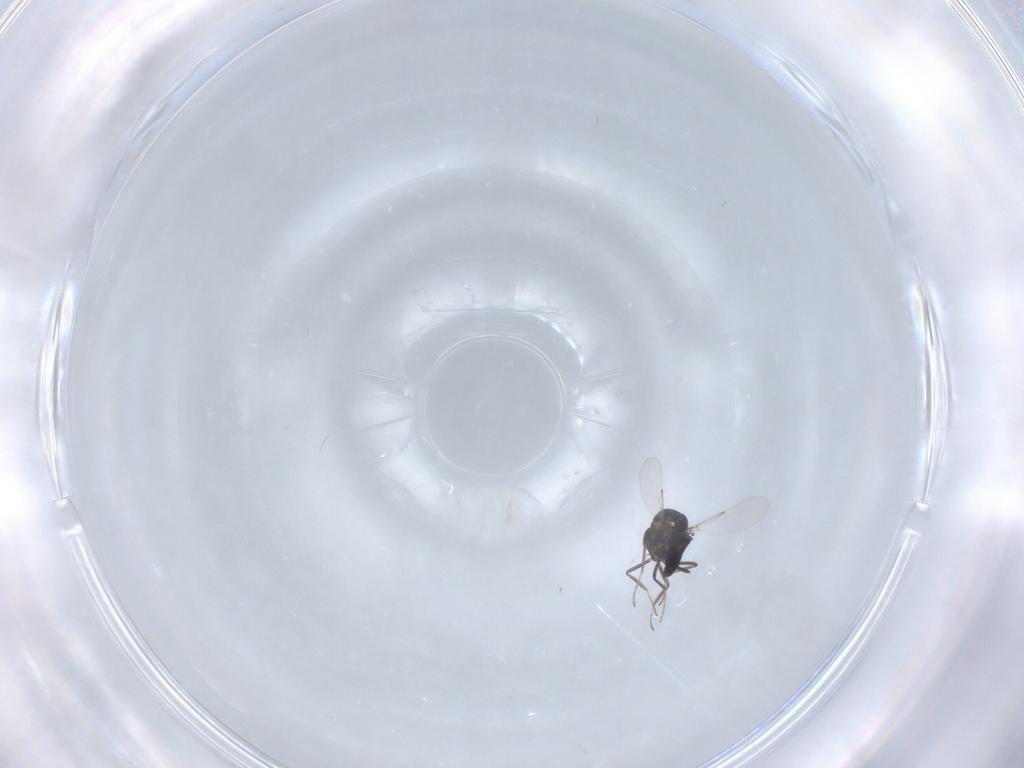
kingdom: Animalia
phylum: Arthropoda
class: Insecta
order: Diptera
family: Ceratopogonidae
